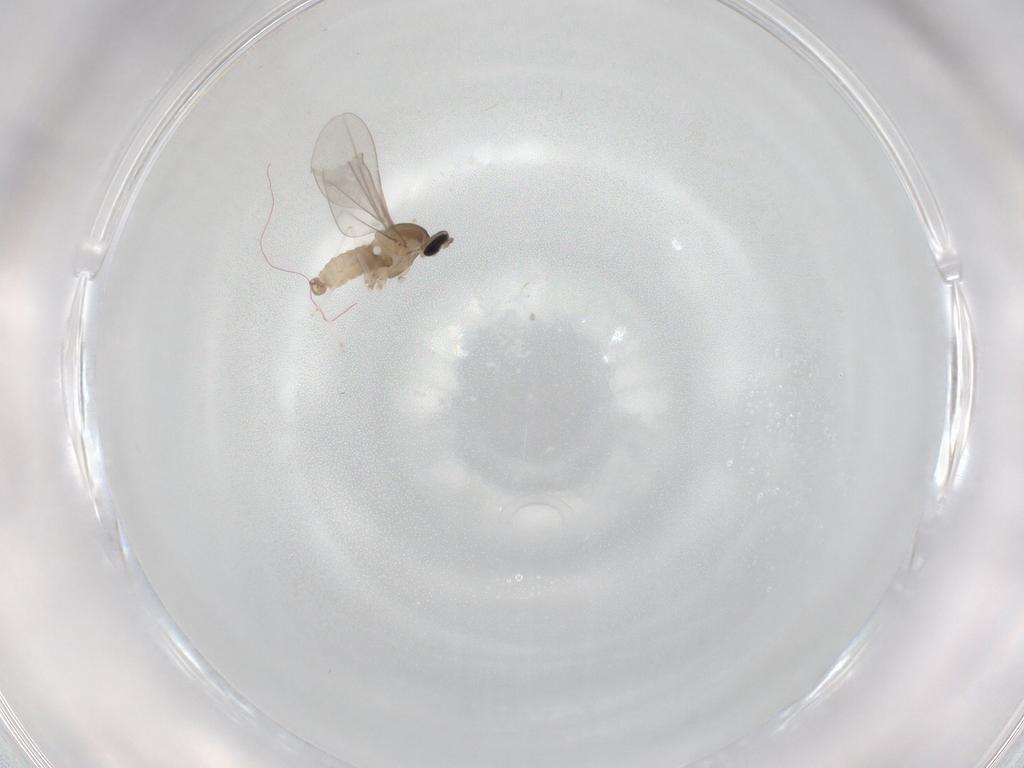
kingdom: Animalia
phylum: Arthropoda
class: Insecta
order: Diptera
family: Cecidomyiidae
